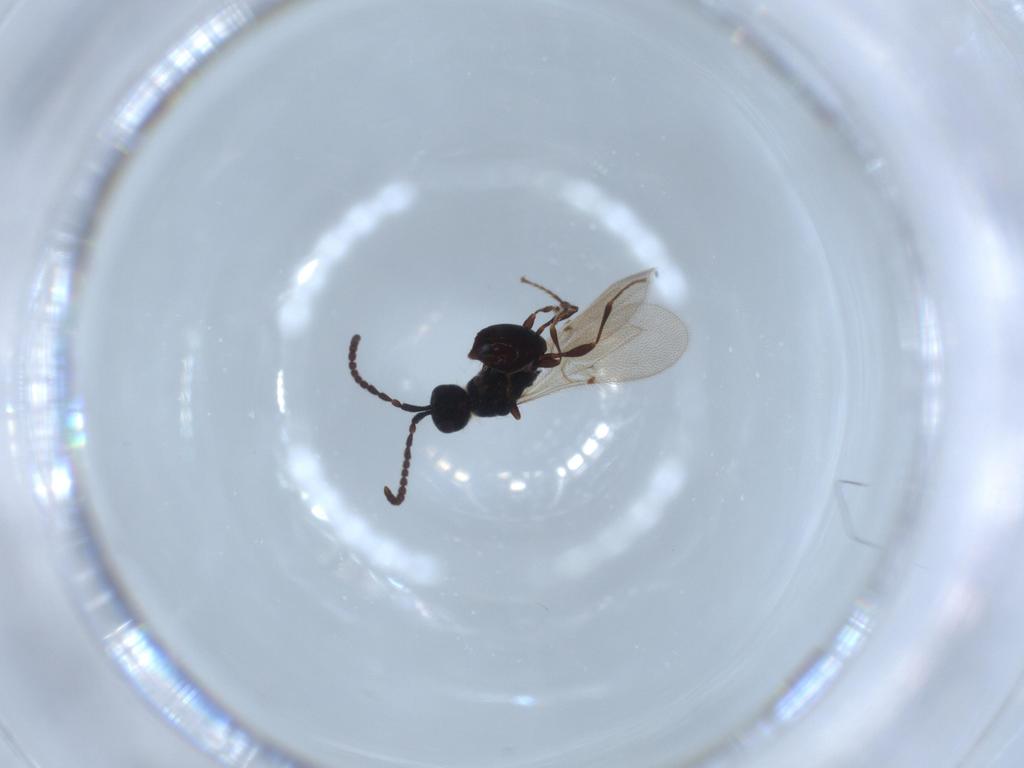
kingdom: Animalia
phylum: Arthropoda
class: Insecta
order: Hymenoptera
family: Diapriidae
